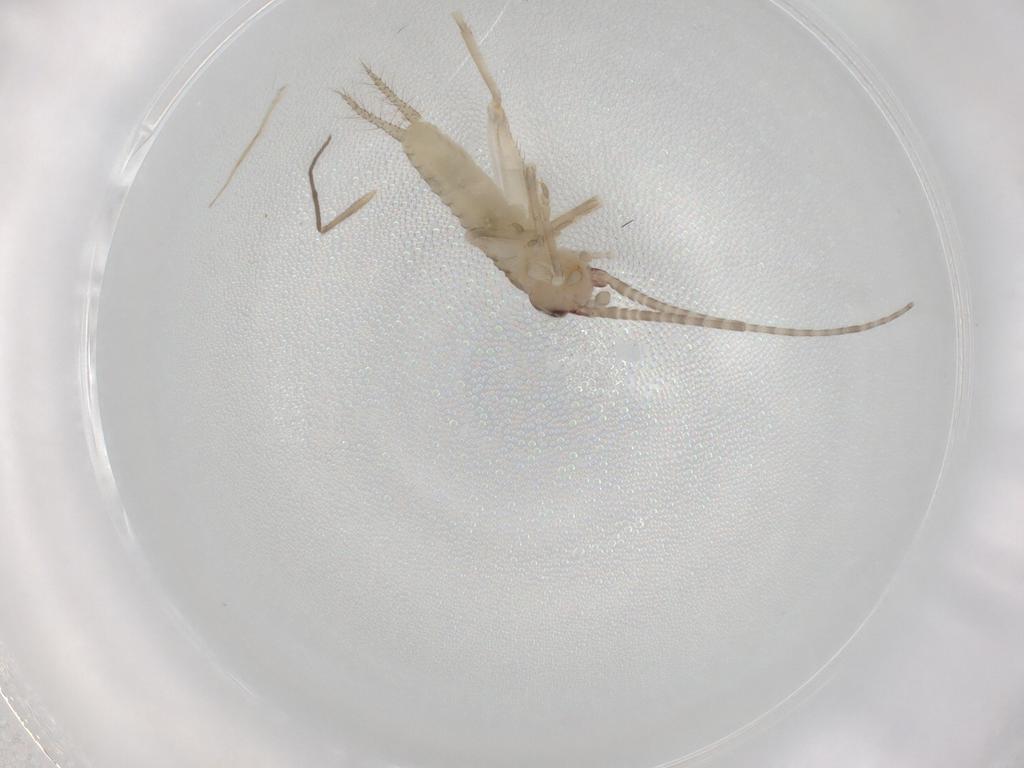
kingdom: Animalia
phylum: Arthropoda
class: Insecta
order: Orthoptera
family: Gryllidae
